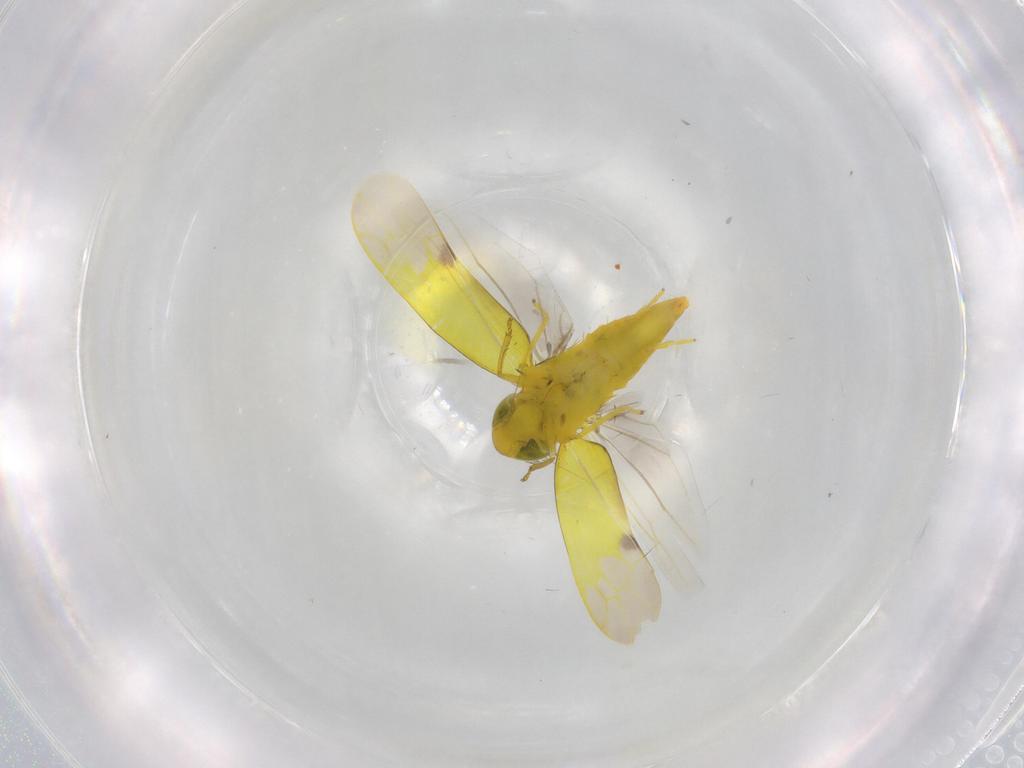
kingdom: Animalia
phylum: Arthropoda
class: Insecta
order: Hemiptera
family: Cicadellidae
